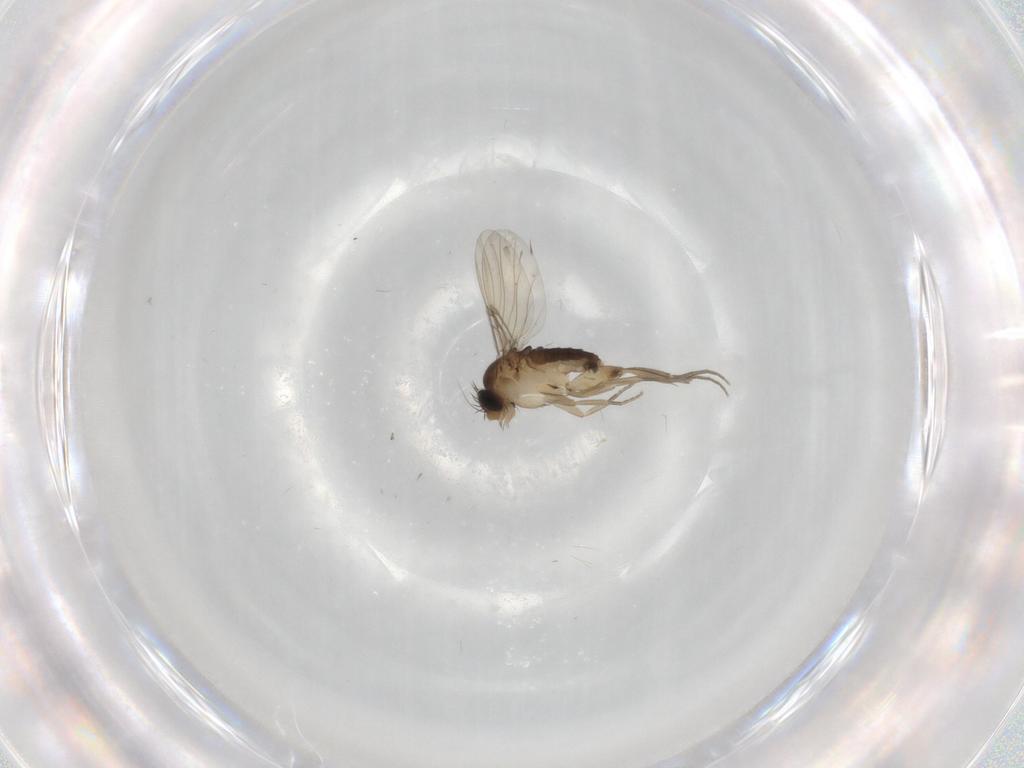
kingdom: Animalia
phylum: Arthropoda
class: Insecta
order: Diptera
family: Phoridae
